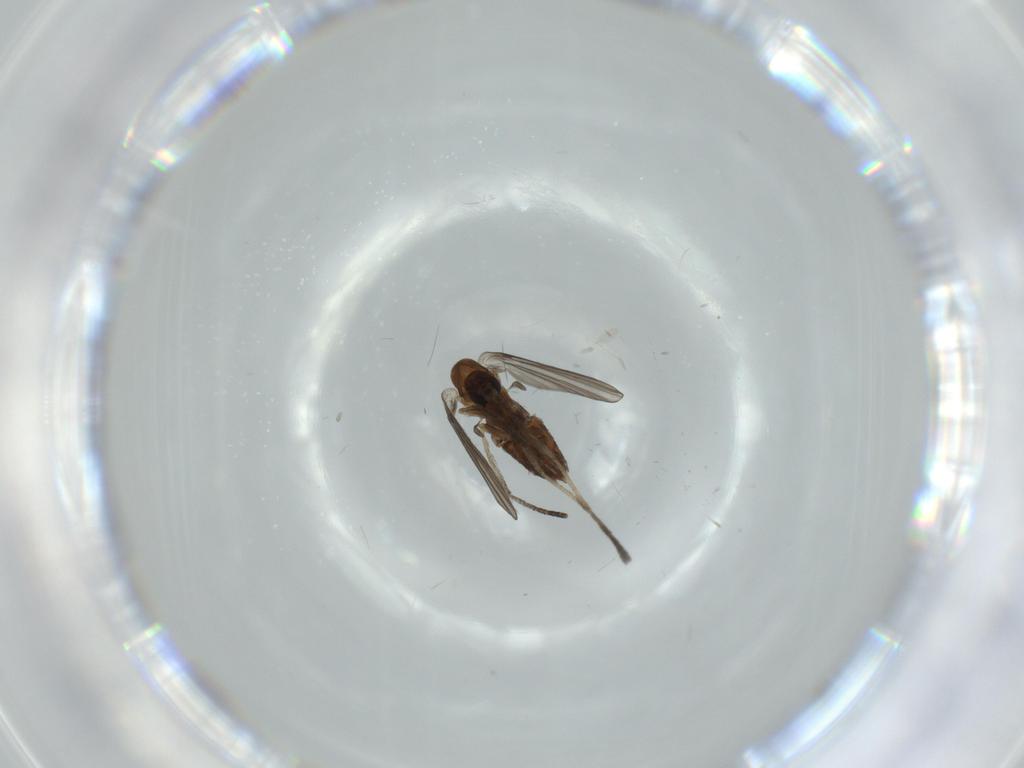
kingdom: Animalia
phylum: Arthropoda
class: Insecta
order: Diptera
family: Psychodidae
